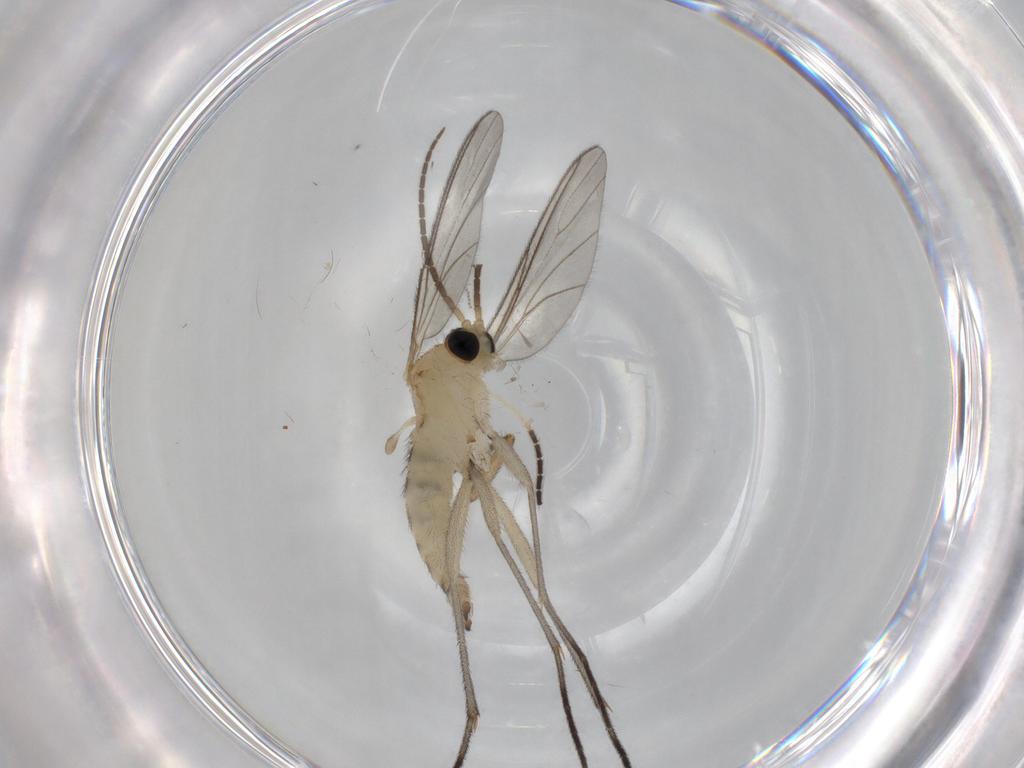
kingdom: Animalia
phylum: Arthropoda
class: Insecta
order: Diptera
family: Sciaridae
